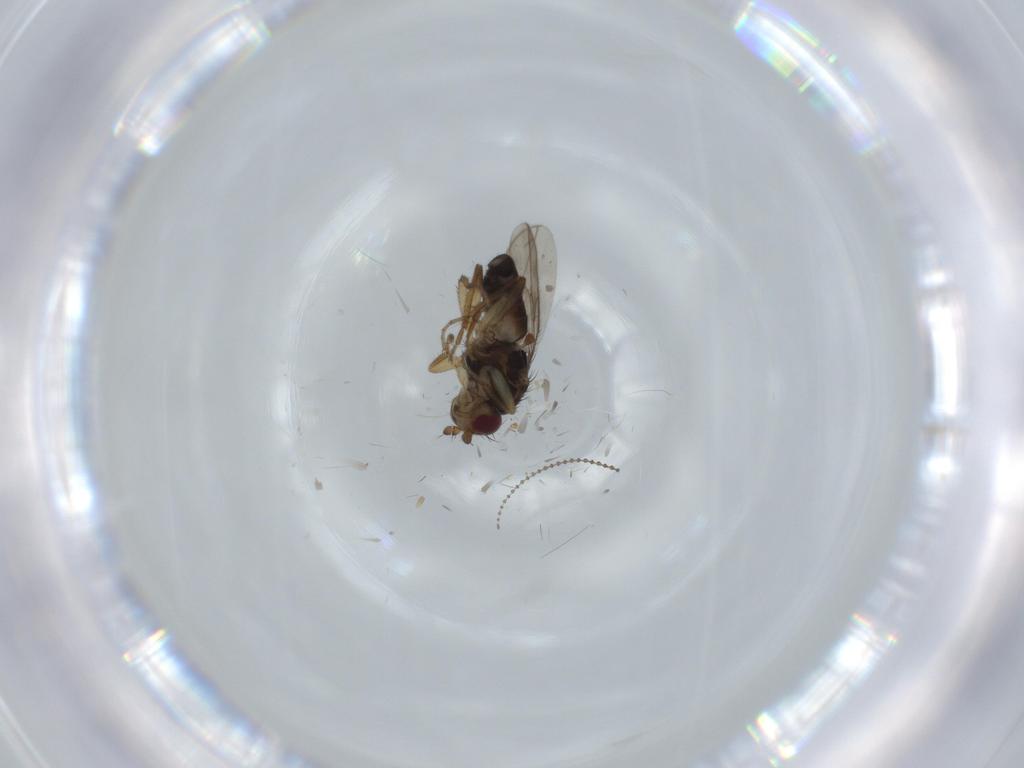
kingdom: Animalia
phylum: Arthropoda
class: Insecta
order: Diptera
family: Sphaeroceridae
